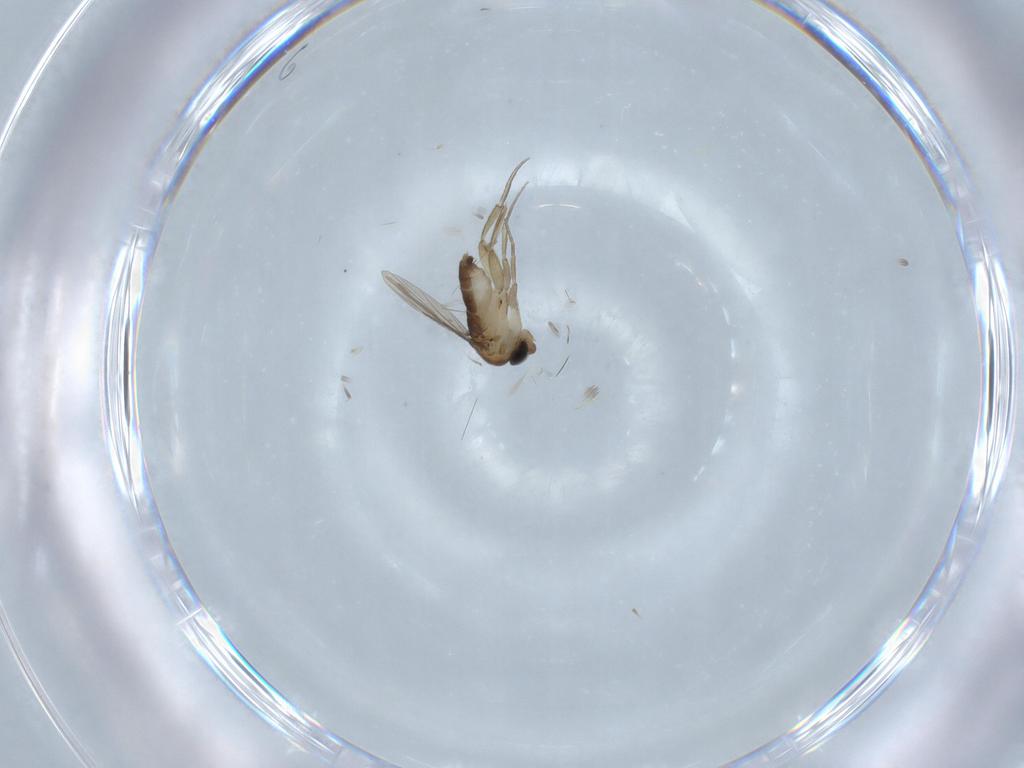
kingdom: Animalia
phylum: Arthropoda
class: Insecta
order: Diptera
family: Phoridae
